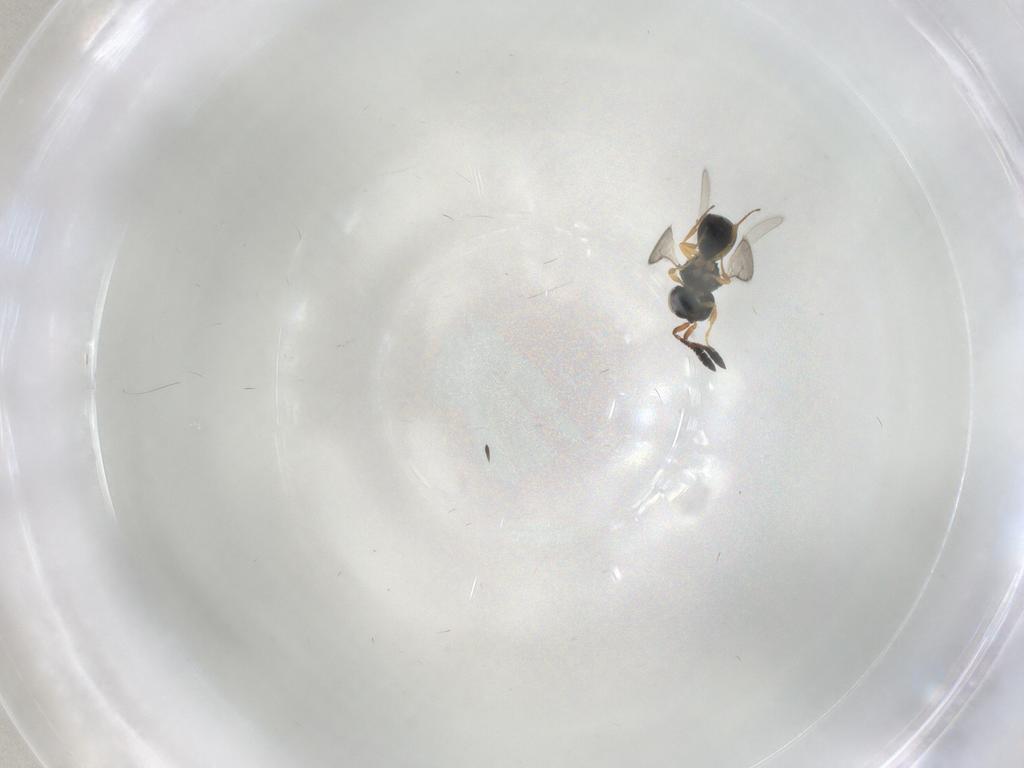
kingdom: Animalia
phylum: Arthropoda
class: Insecta
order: Hymenoptera
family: Scelionidae
